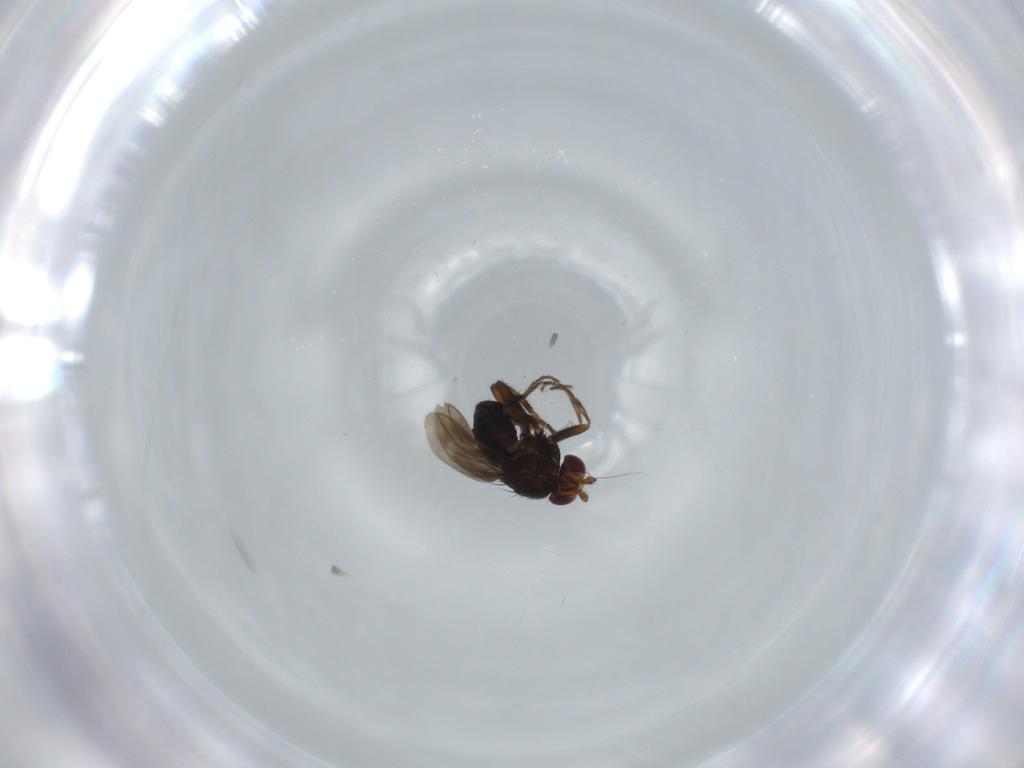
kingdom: Animalia
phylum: Arthropoda
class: Insecta
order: Diptera
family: Sphaeroceridae
